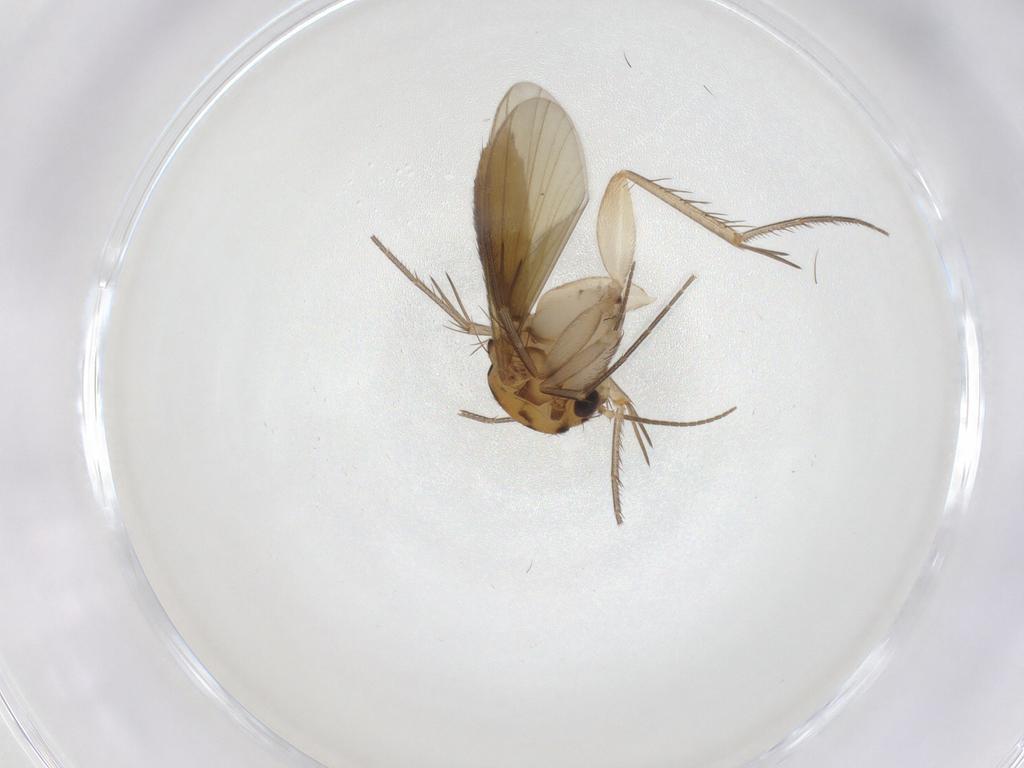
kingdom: Animalia
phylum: Arthropoda
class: Insecta
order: Diptera
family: Mycetophilidae
